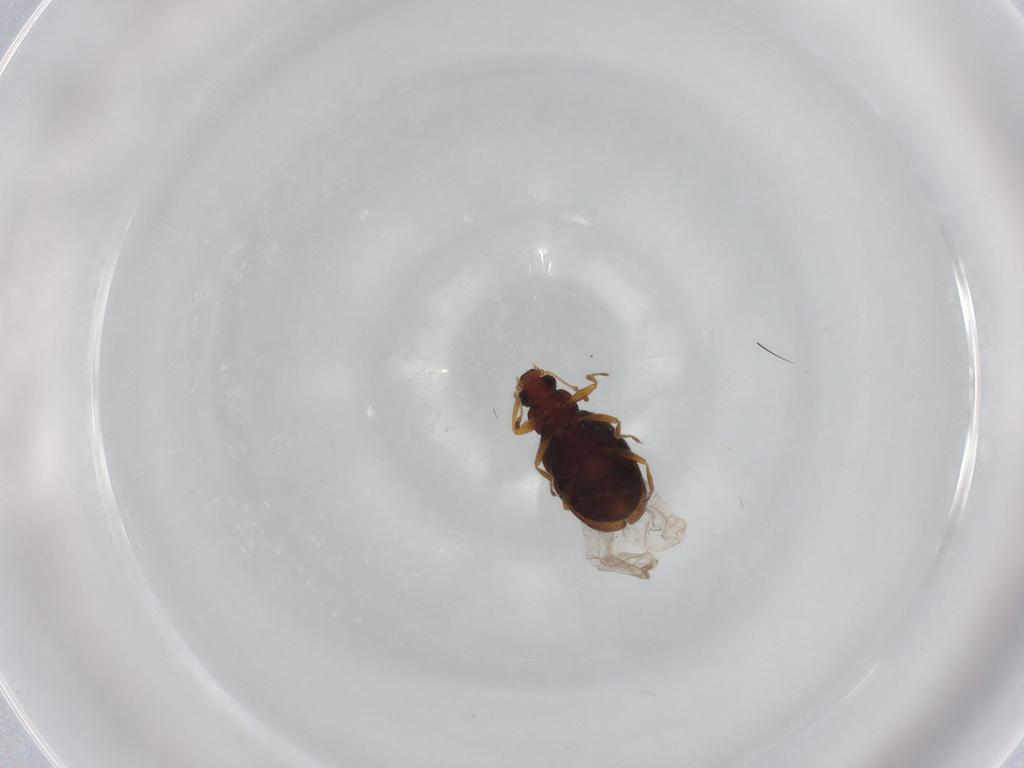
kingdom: Animalia
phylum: Arthropoda
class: Insecta
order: Coleoptera
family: Latridiidae
